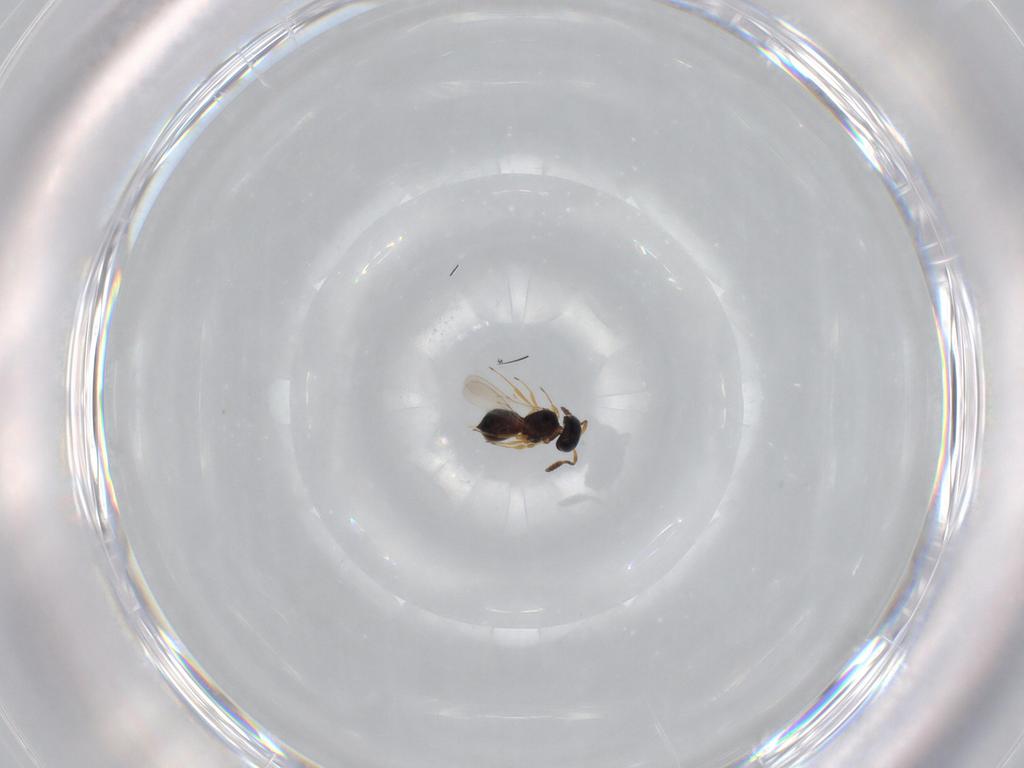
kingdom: Animalia
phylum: Arthropoda
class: Insecta
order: Hymenoptera
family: Scelionidae
